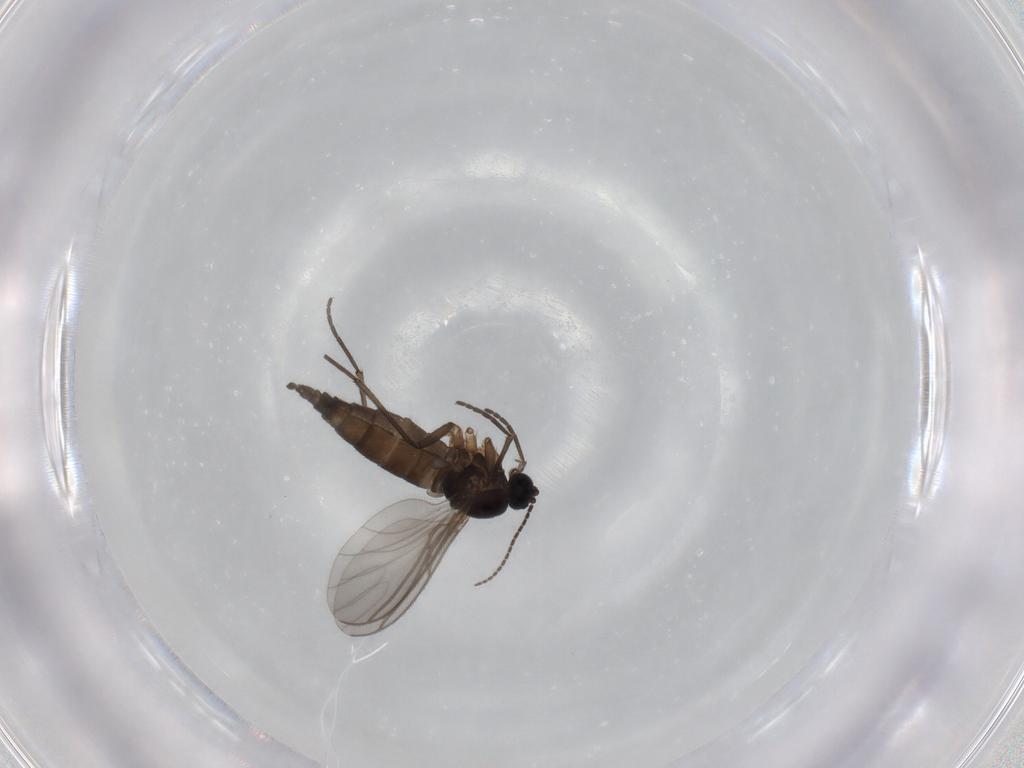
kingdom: Animalia
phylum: Arthropoda
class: Insecta
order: Diptera
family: Sciaridae
